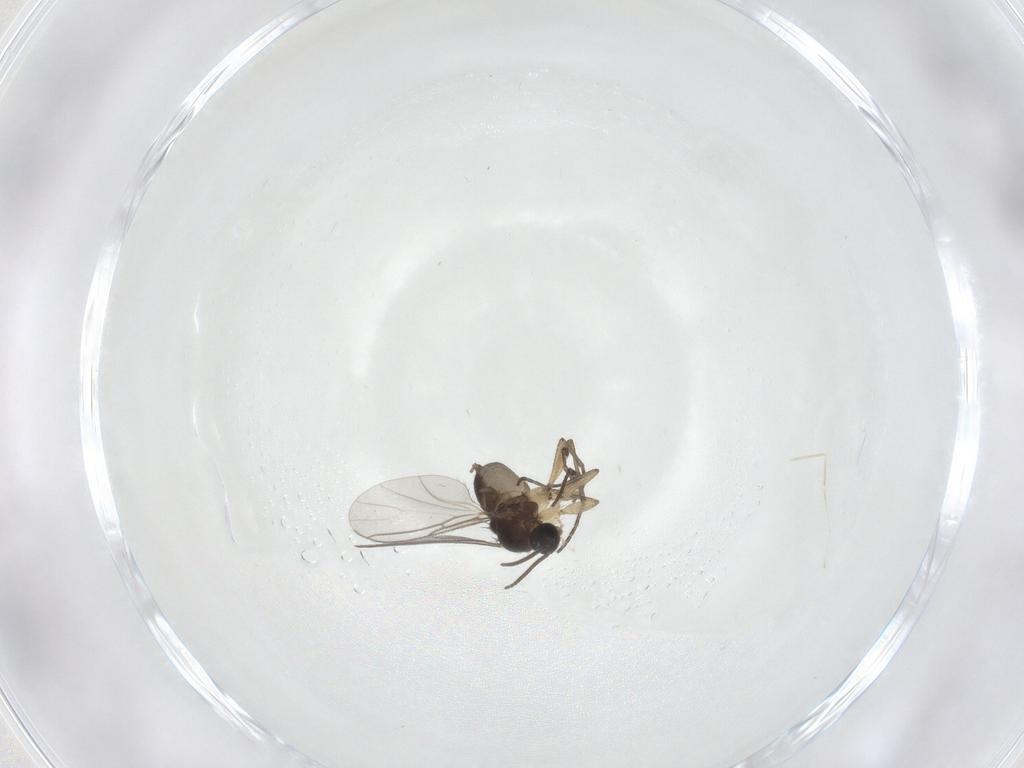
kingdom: Animalia
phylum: Arthropoda
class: Insecta
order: Diptera
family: Sciaridae
